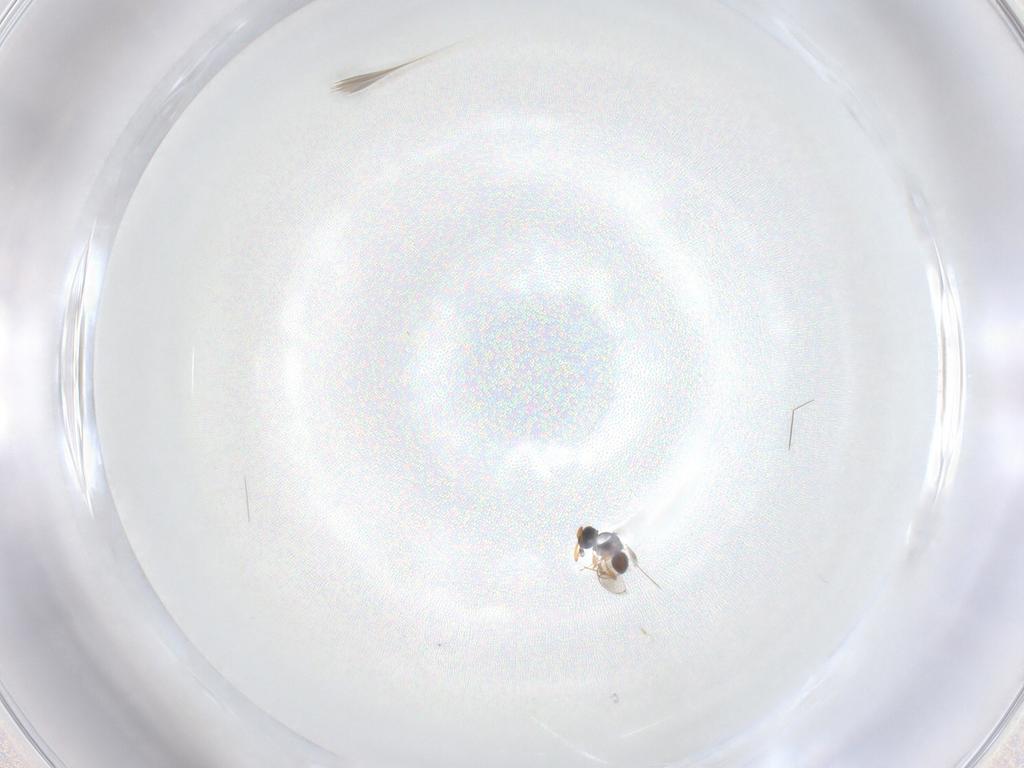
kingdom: Animalia
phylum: Arthropoda
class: Insecta
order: Hymenoptera
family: Platygastridae
